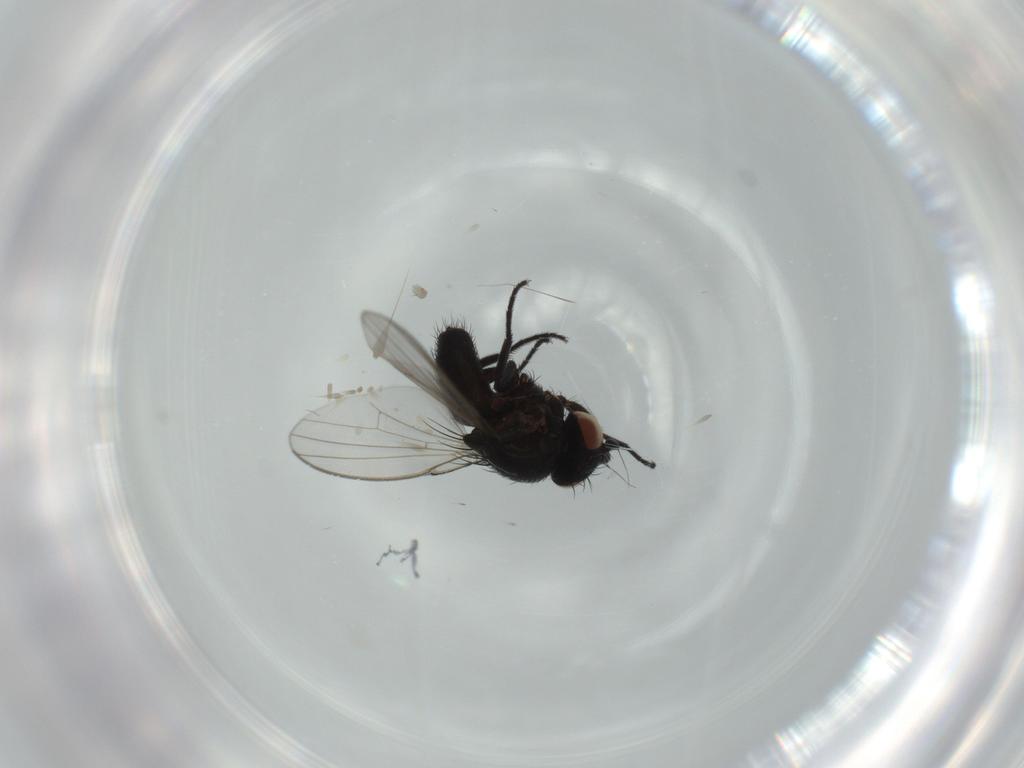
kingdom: Animalia
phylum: Arthropoda
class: Insecta
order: Diptera
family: Milichiidae
